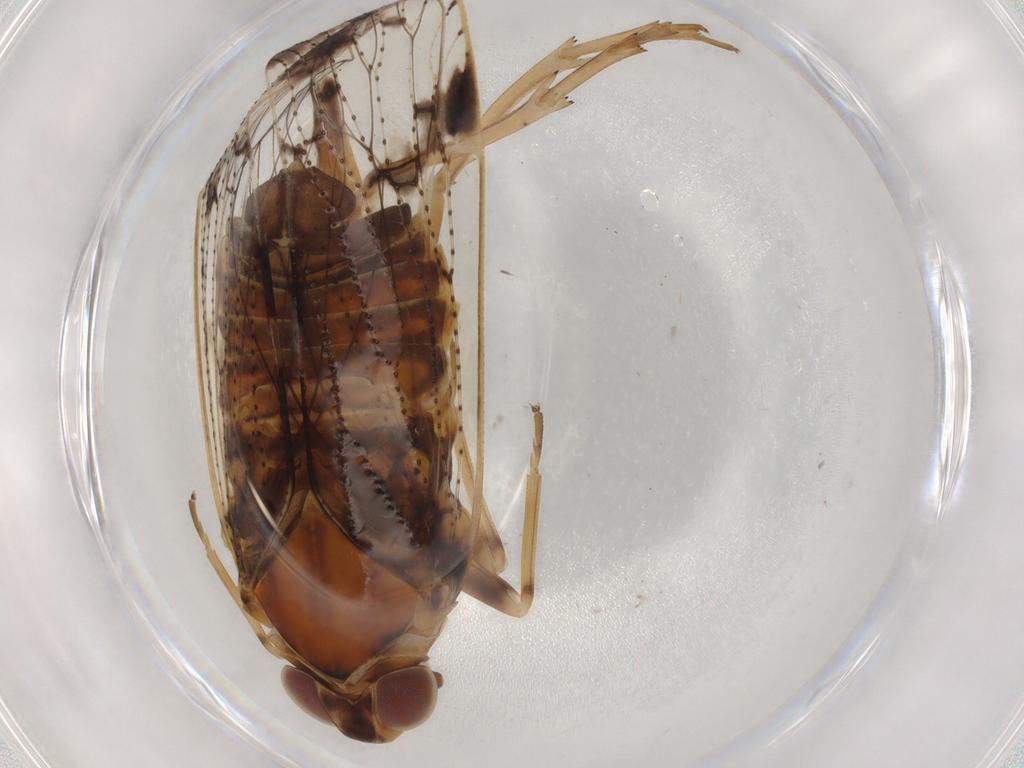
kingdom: Animalia
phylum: Arthropoda
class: Insecta
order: Hemiptera
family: Cixiidae
